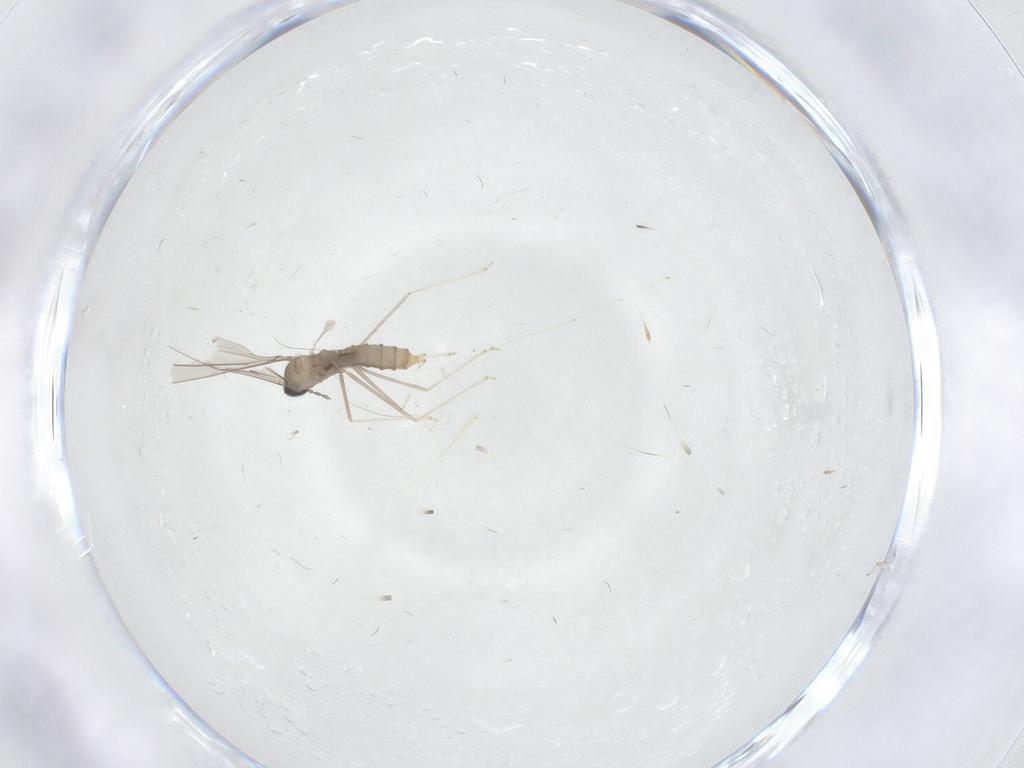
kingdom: Animalia
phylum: Arthropoda
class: Insecta
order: Diptera
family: Cecidomyiidae
